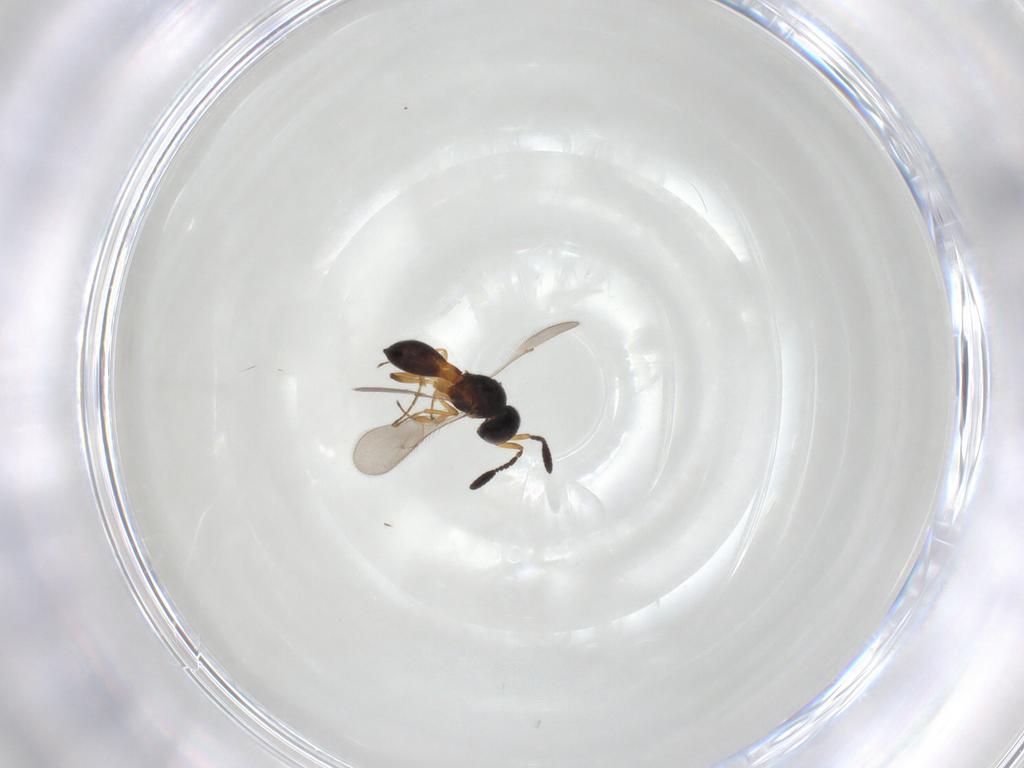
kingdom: Animalia
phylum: Arthropoda
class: Insecta
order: Hymenoptera
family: Scelionidae
